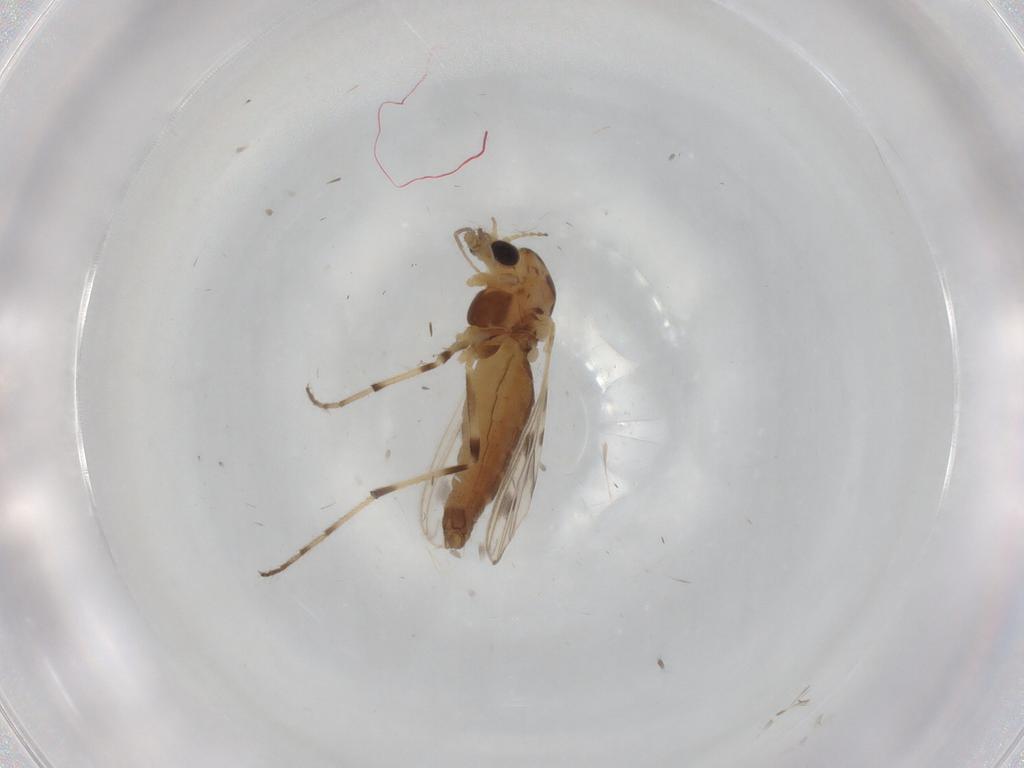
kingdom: Animalia
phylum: Arthropoda
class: Insecta
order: Diptera
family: Chironomidae
